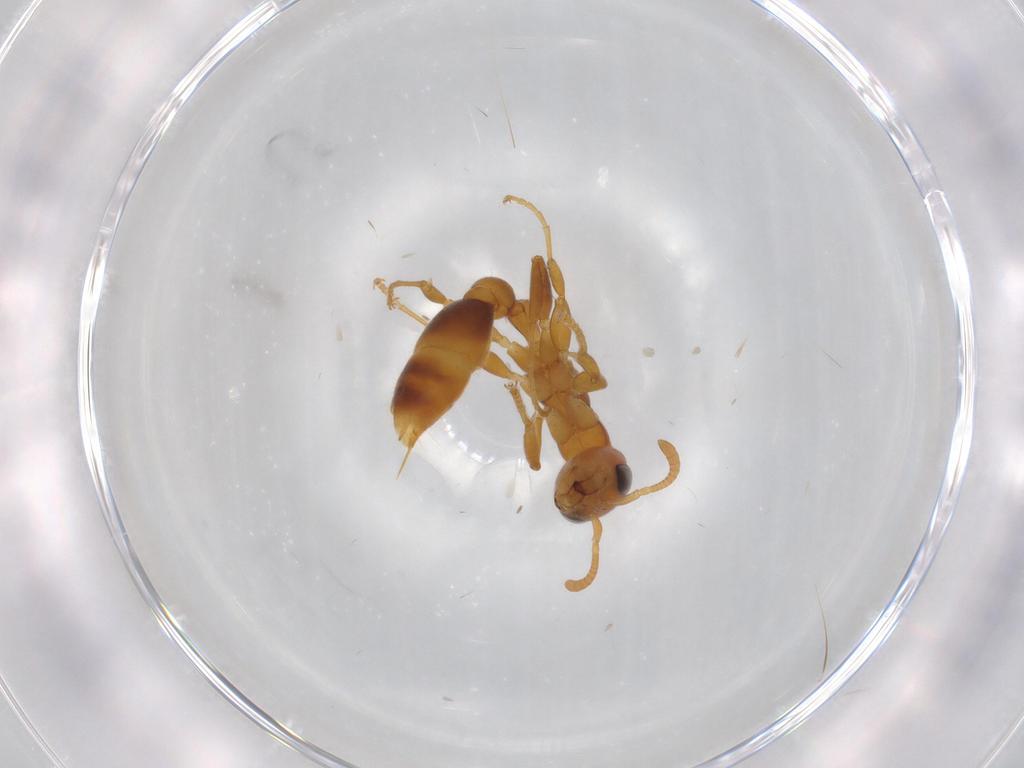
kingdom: Animalia
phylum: Arthropoda
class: Insecta
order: Hymenoptera
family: Formicidae
